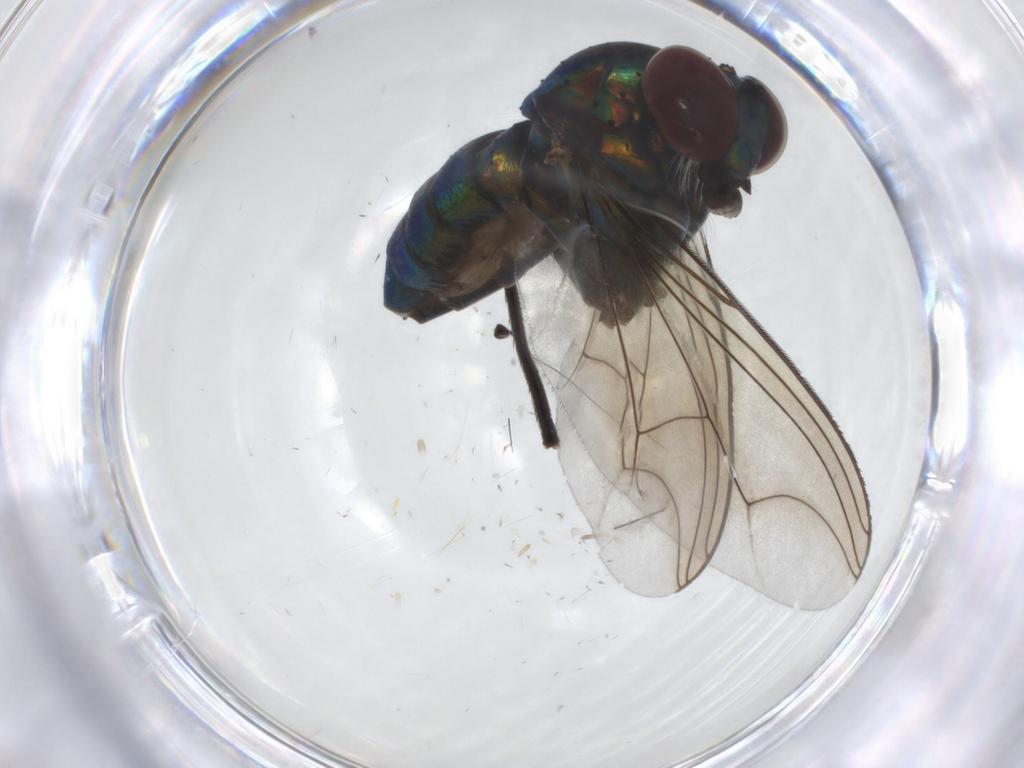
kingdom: Animalia
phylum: Arthropoda
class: Insecta
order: Diptera
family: Dolichopodidae
